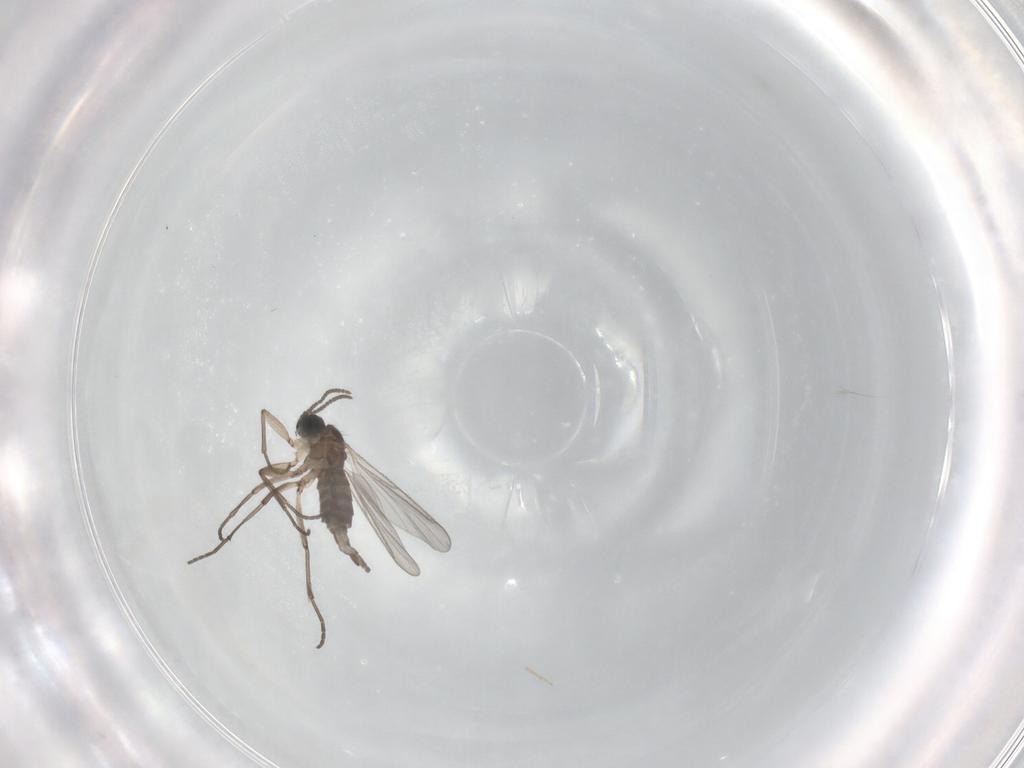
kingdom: Animalia
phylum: Arthropoda
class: Insecta
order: Diptera
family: Sciaridae
